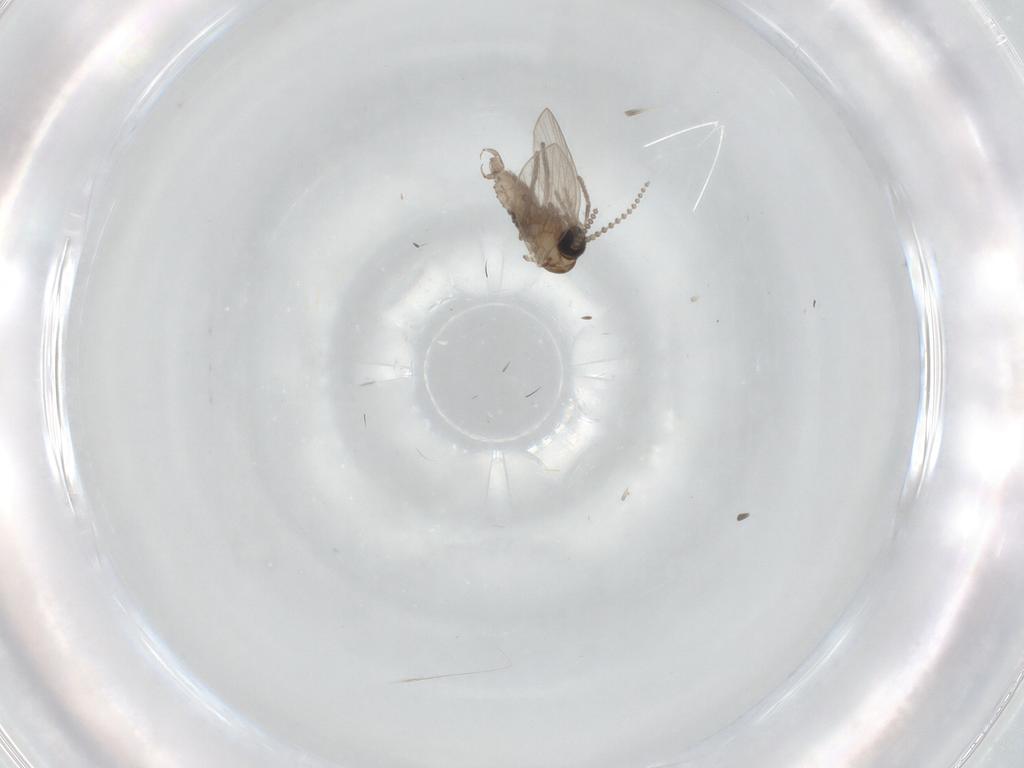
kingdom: Animalia
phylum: Arthropoda
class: Insecta
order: Diptera
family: Psychodidae
